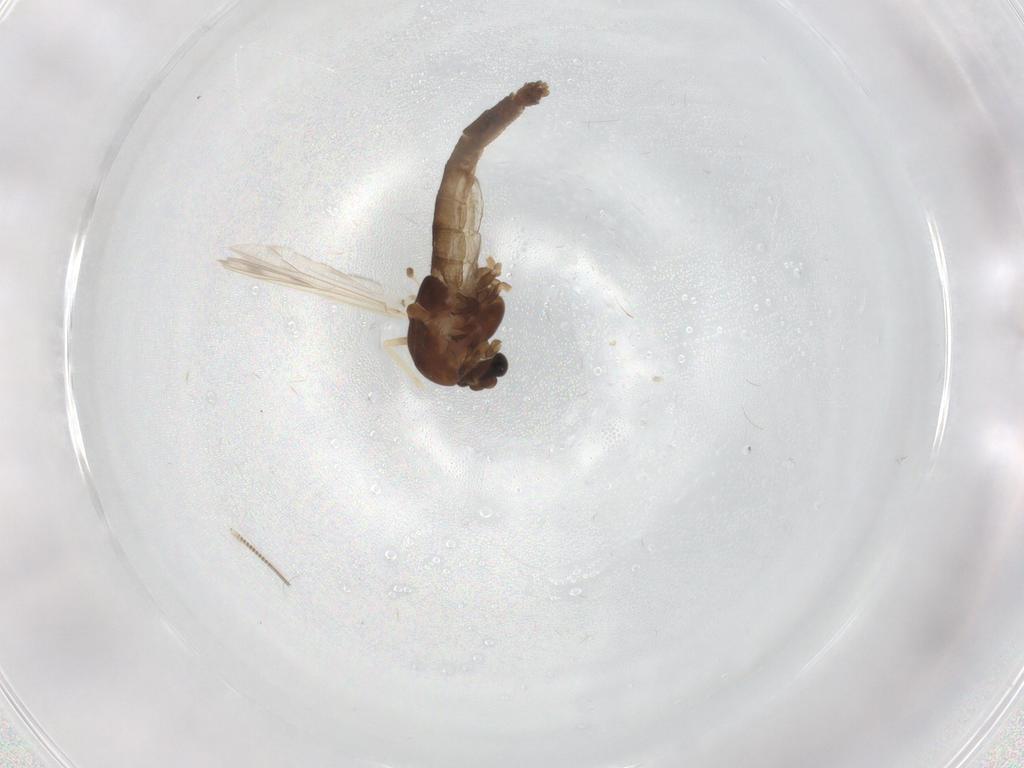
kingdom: Animalia
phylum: Arthropoda
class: Insecta
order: Diptera
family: Chironomidae
